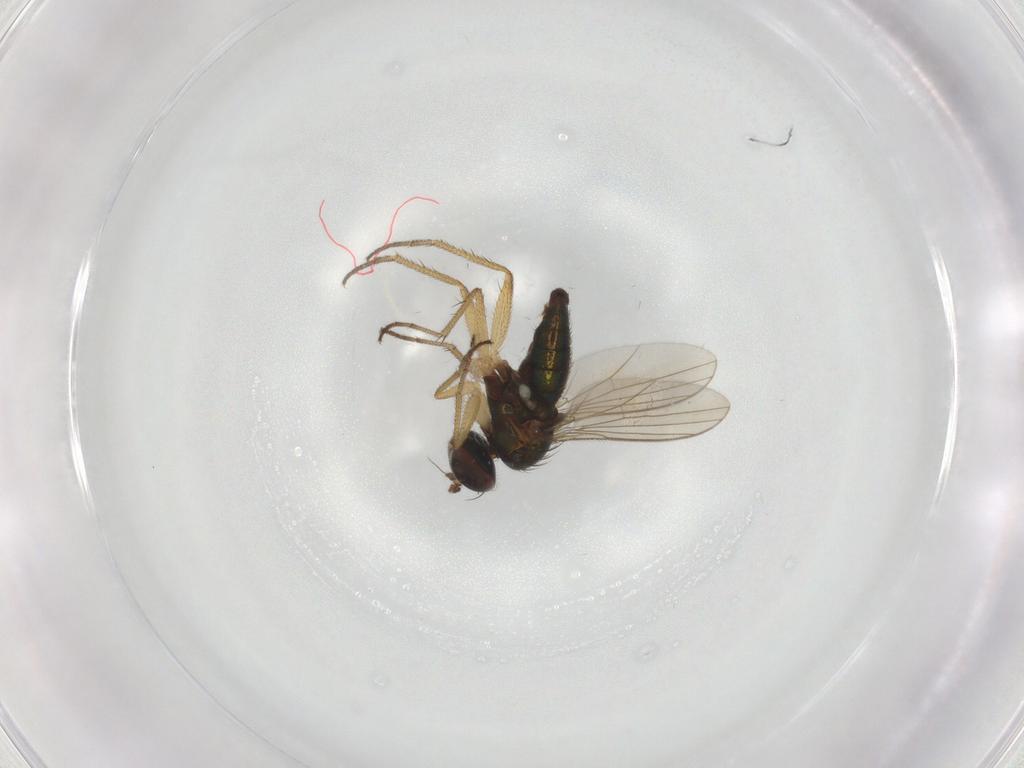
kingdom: Animalia
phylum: Arthropoda
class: Insecta
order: Diptera
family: Dolichopodidae
